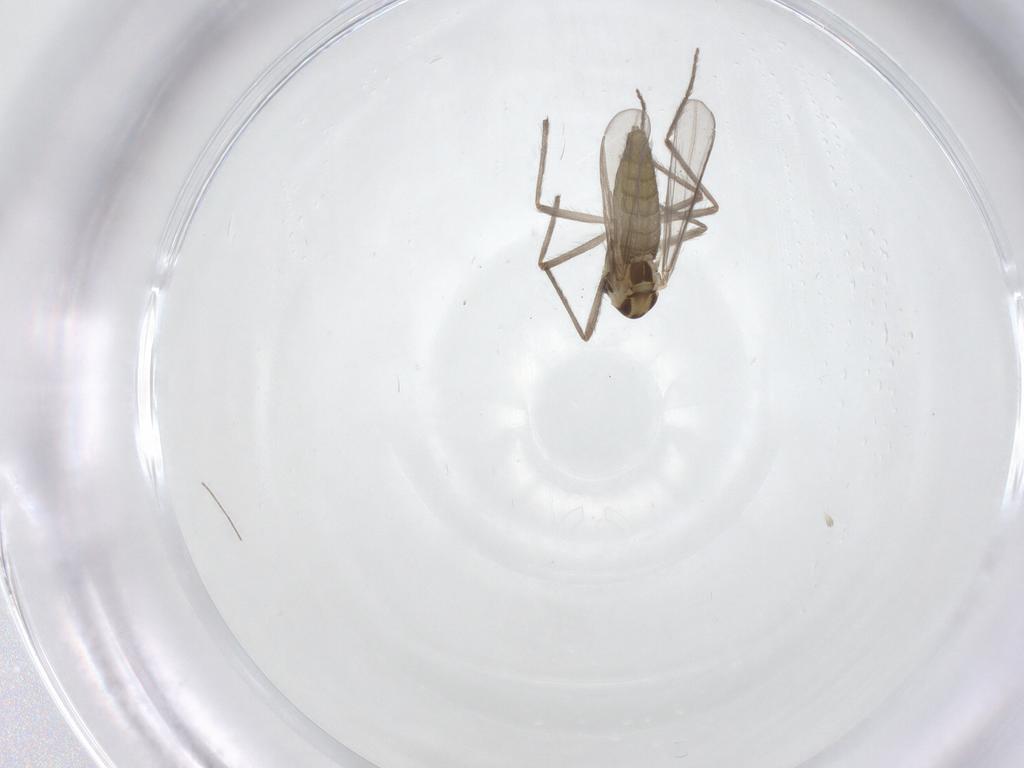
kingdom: Animalia
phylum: Arthropoda
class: Insecta
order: Diptera
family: Chironomidae
